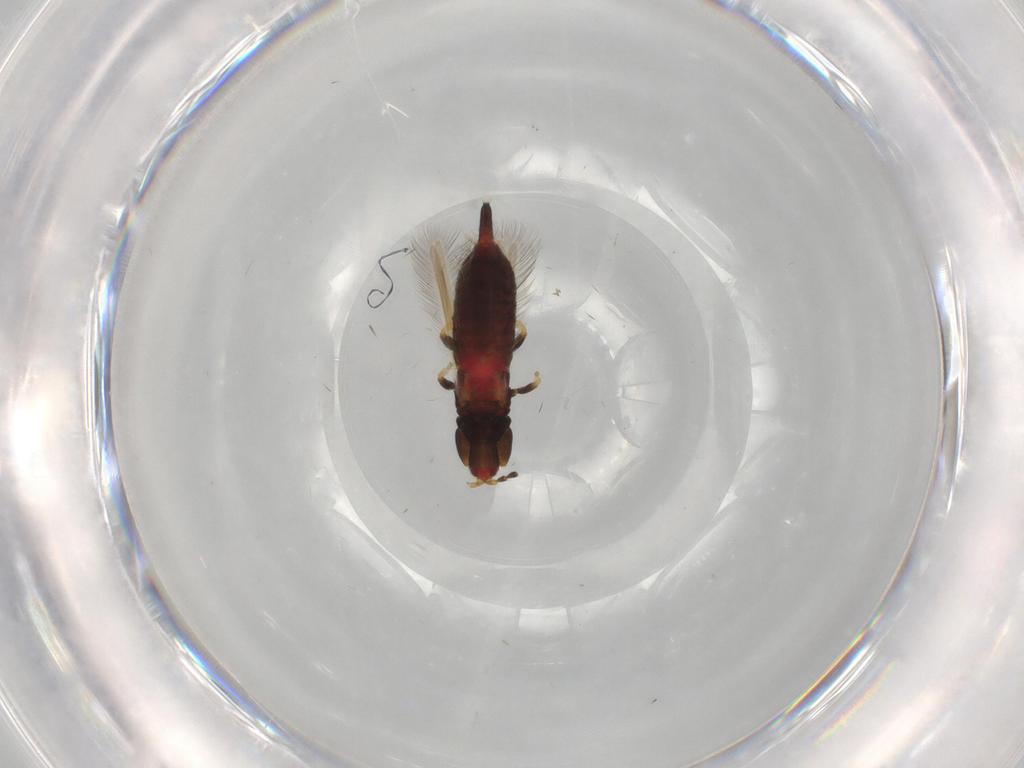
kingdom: Animalia
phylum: Arthropoda
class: Insecta
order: Thysanoptera
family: Phlaeothripidae
